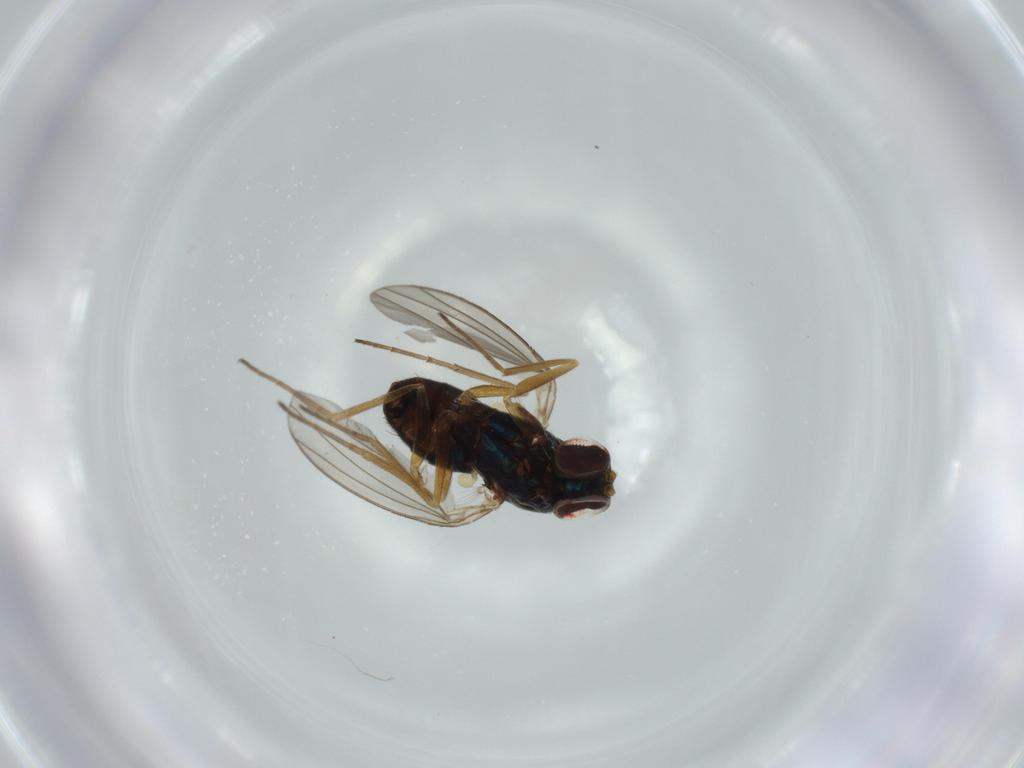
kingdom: Animalia
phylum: Arthropoda
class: Insecta
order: Diptera
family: Dolichopodidae
